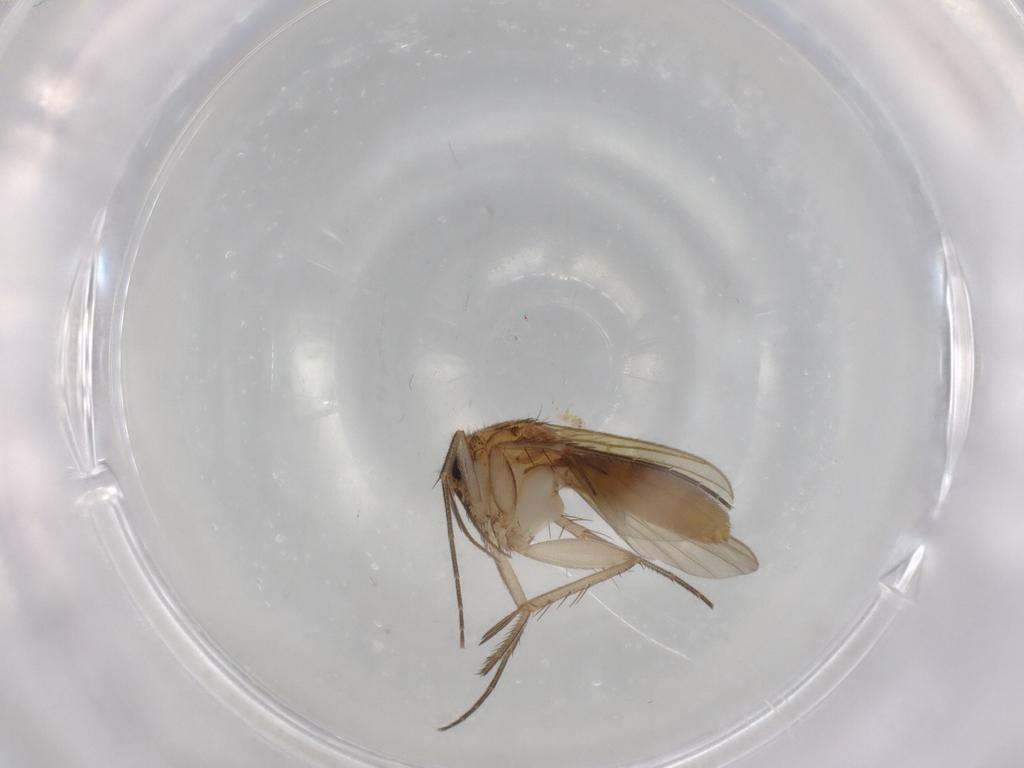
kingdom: Animalia
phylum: Arthropoda
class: Insecta
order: Diptera
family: Mycetophilidae
